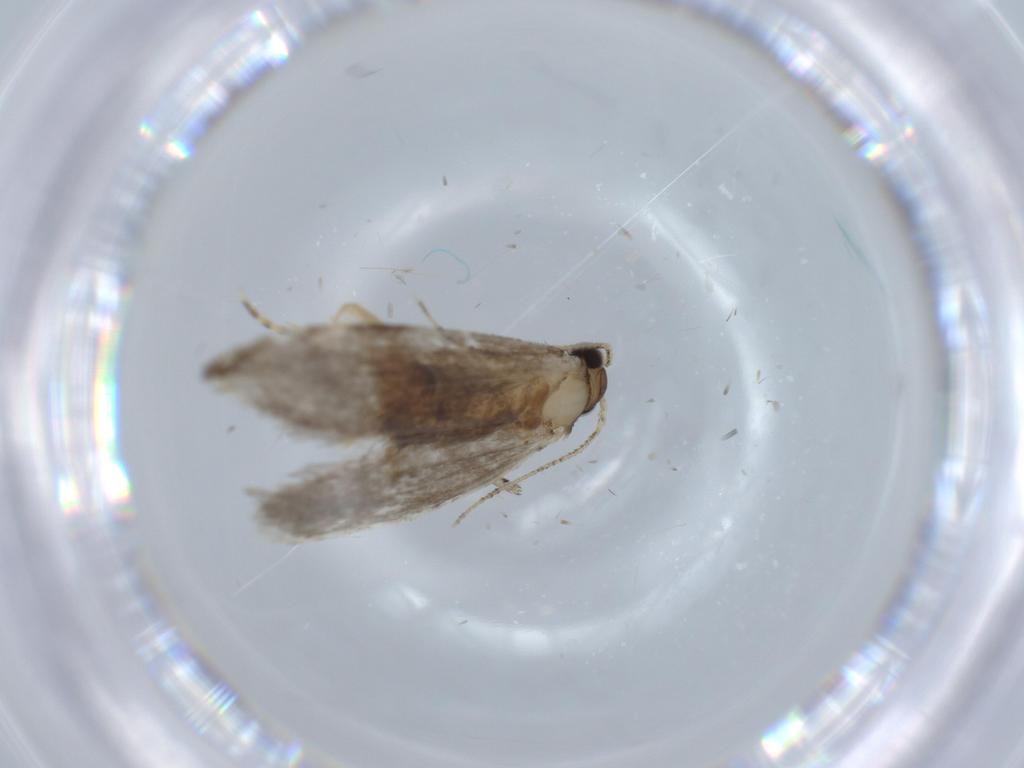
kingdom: Animalia
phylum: Arthropoda
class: Insecta
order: Lepidoptera
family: Tineidae
